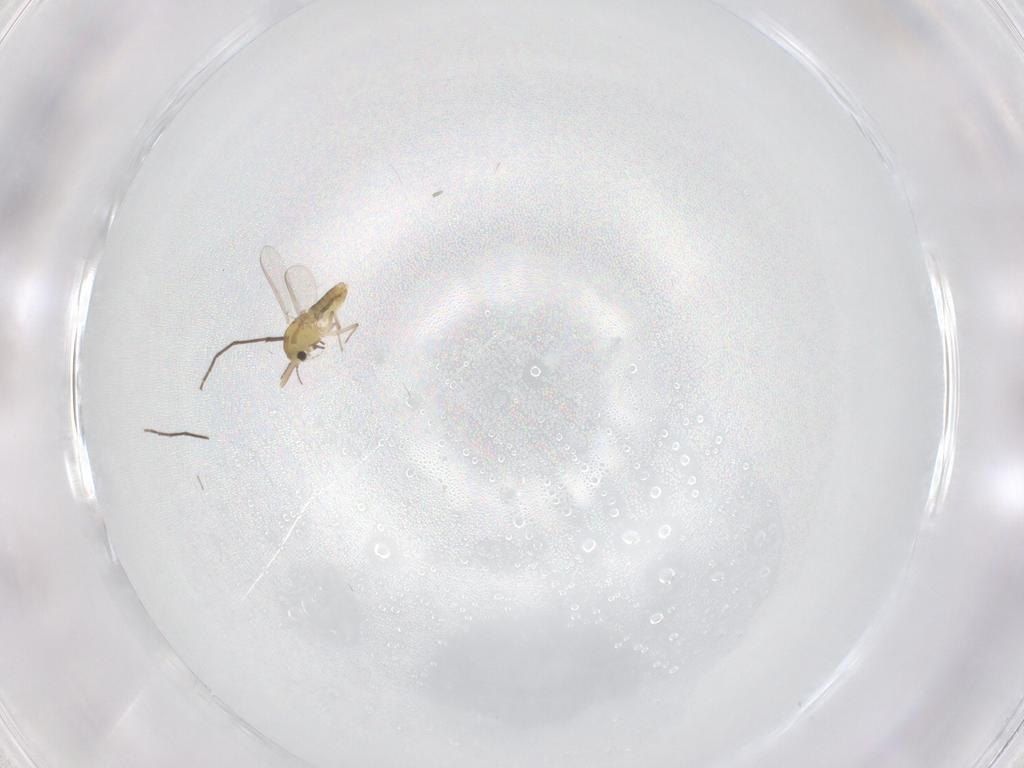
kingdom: Animalia
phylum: Arthropoda
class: Insecta
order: Diptera
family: Chironomidae
